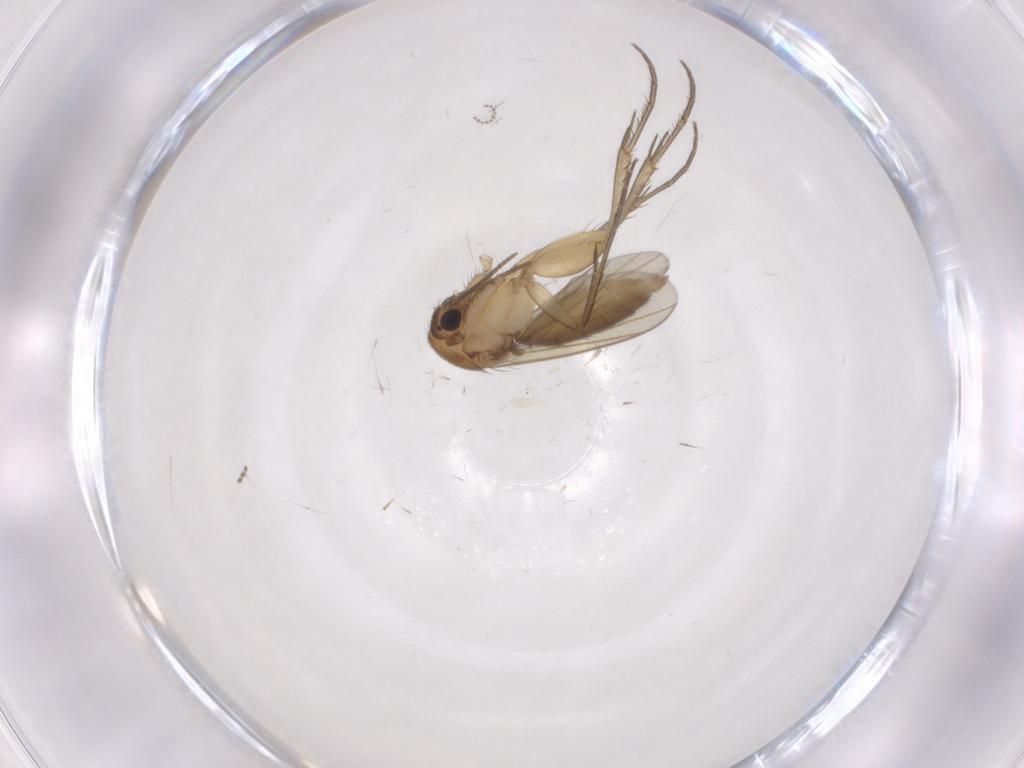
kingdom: Animalia
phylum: Arthropoda
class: Insecta
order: Diptera
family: Mycetophilidae
